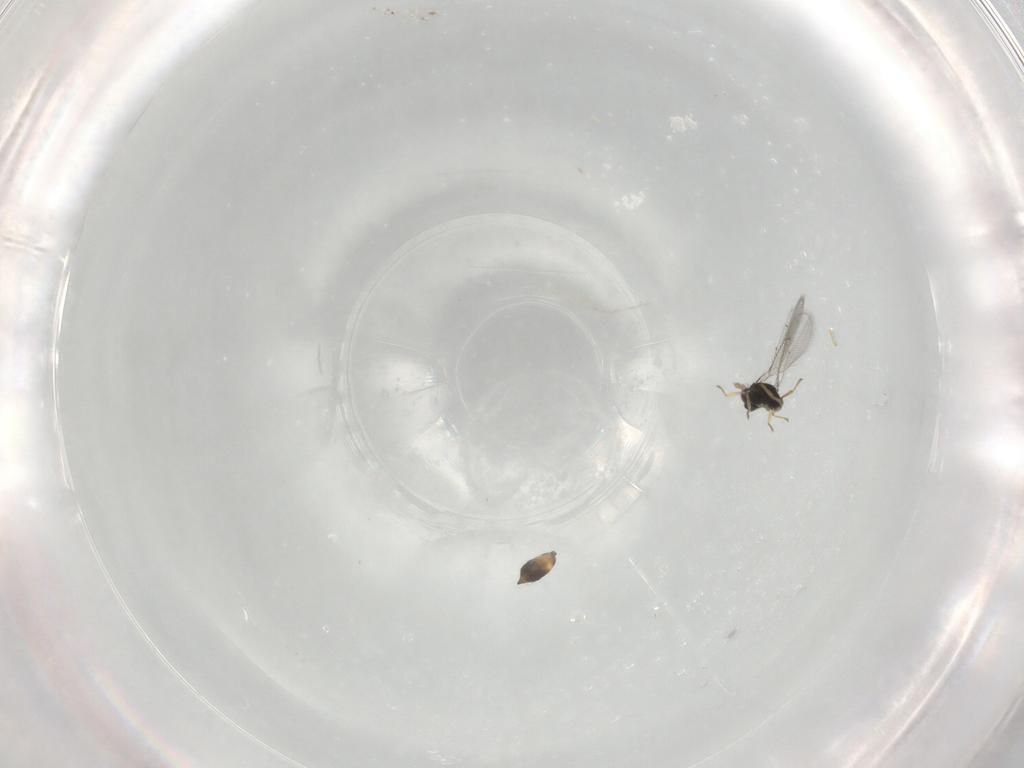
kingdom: Animalia
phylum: Arthropoda
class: Insecta
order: Hymenoptera
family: Eulophidae
